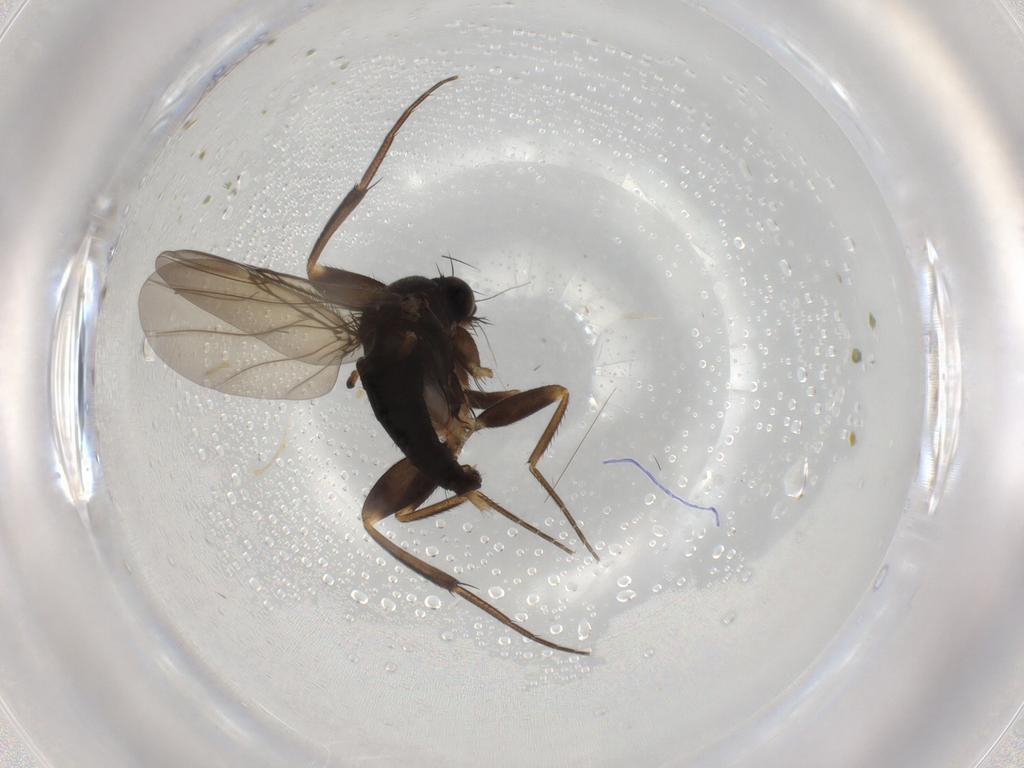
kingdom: Animalia
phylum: Arthropoda
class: Insecta
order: Diptera
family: Phoridae
